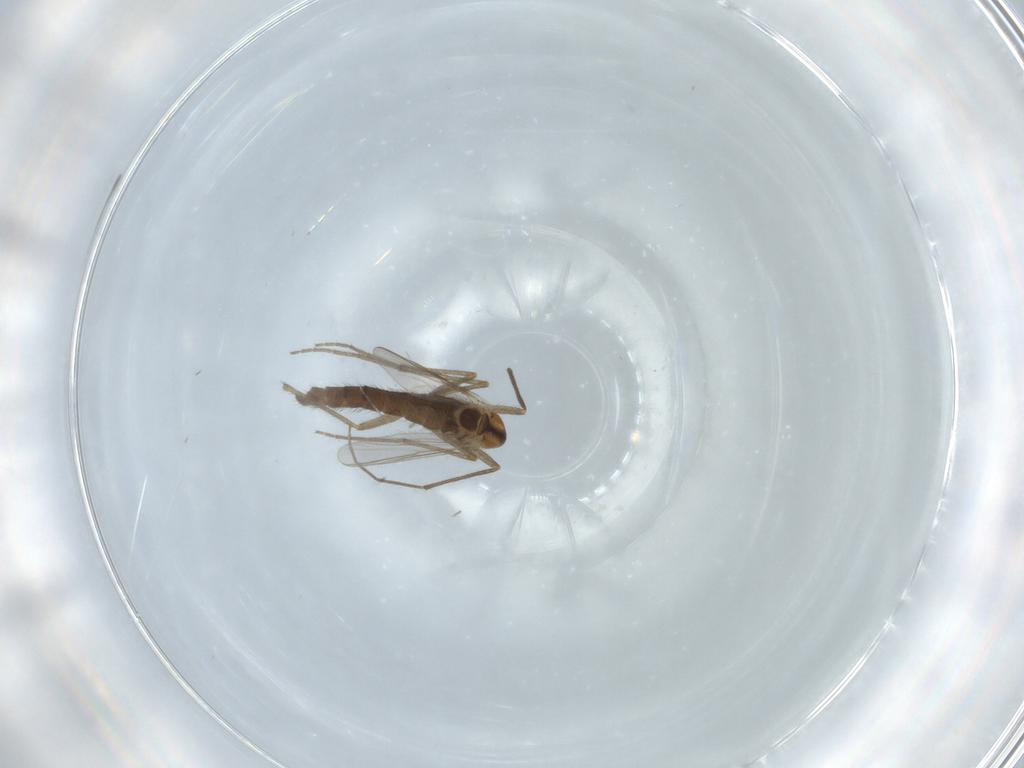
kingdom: Animalia
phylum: Arthropoda
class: Insecta
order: Diptera
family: Chironomidae
